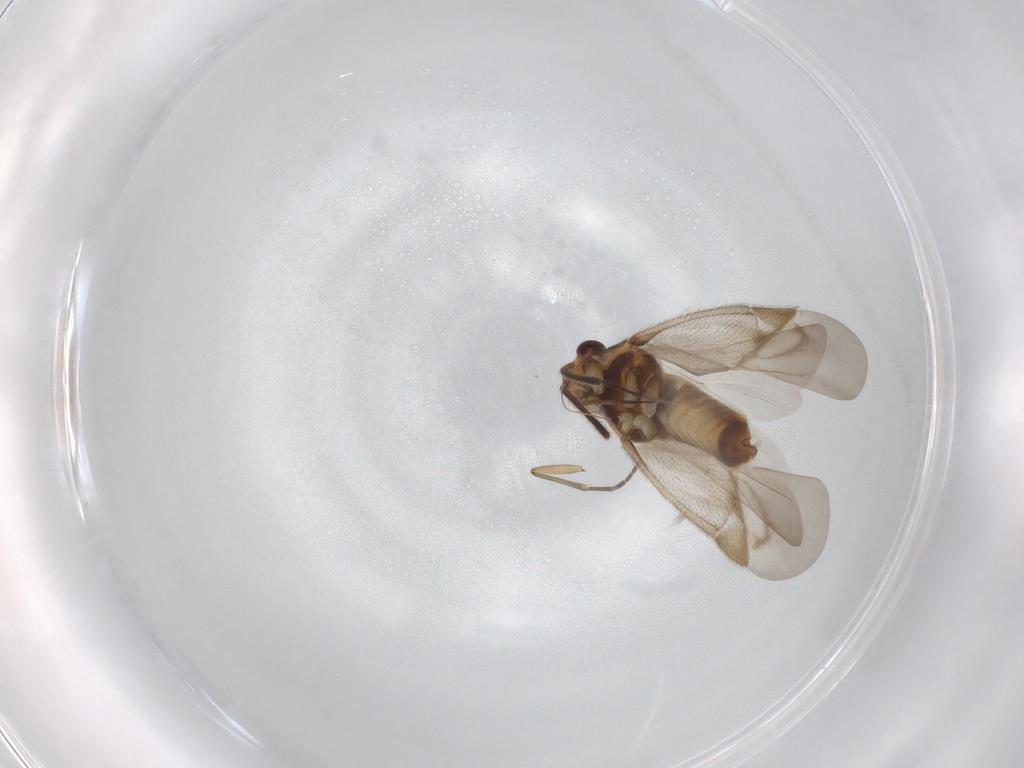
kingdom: Animalia
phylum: Arthropoda
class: Insecta
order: Hemiptera
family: Miridae
